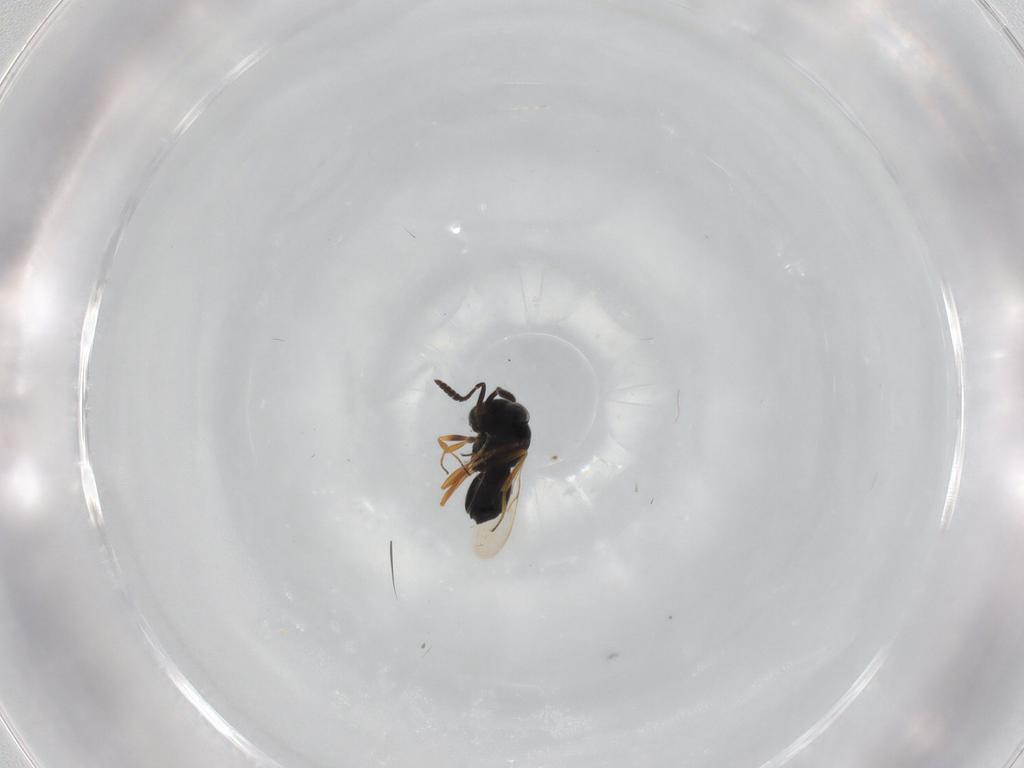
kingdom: Animalia
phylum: Arthropoda
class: Insecta
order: Hymenoptera
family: Scelionidae
